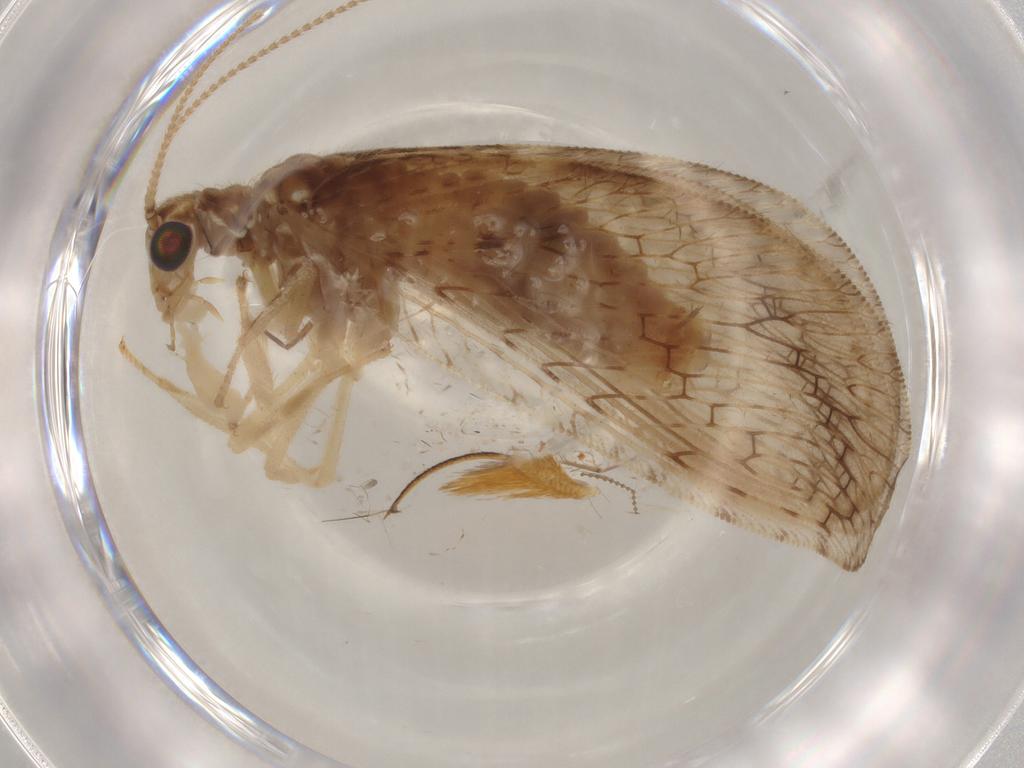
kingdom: Animalia
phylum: Arthropoda
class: Insecta
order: Neuroptera
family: Hemerobiidae
